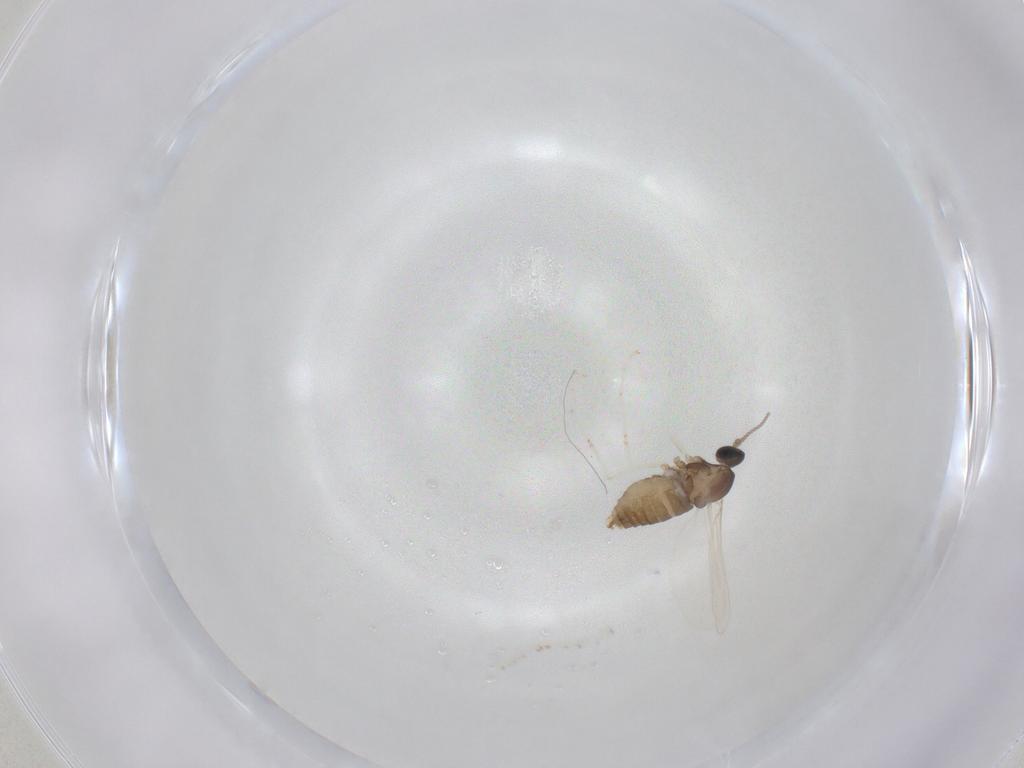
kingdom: Animalia
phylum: Arthropoda
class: Insecta
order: Diptera
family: Cecidomyiidae
